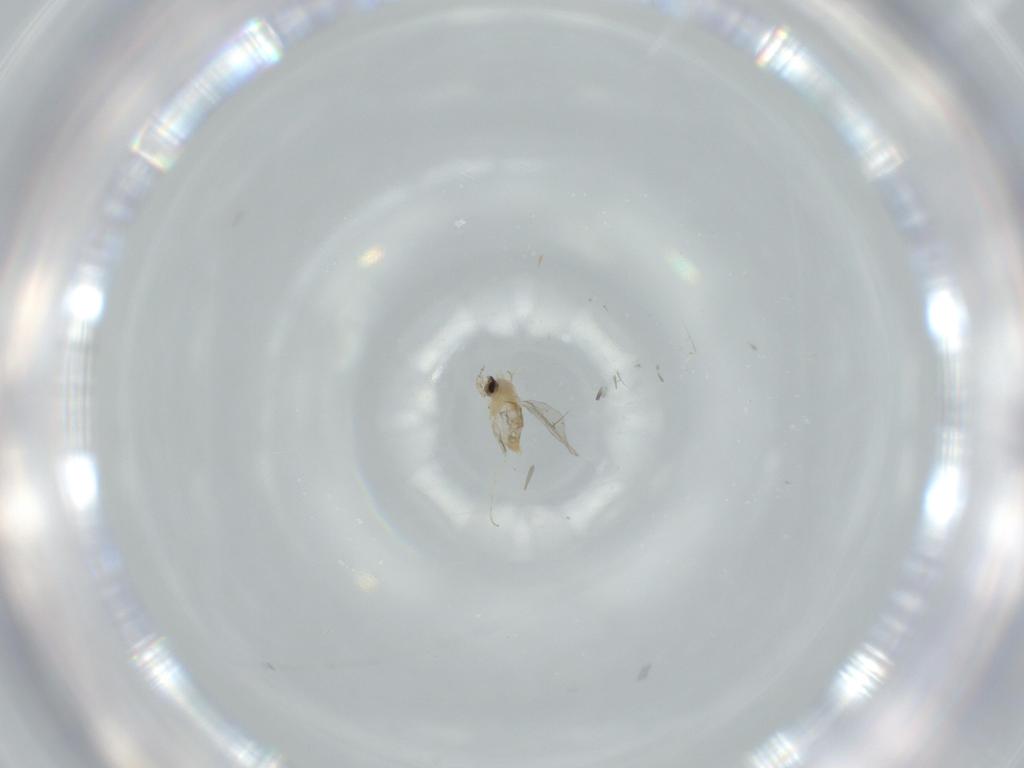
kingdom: Animalia
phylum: Arthropoda
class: Insecta
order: Diptera
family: Cecidomyiidae
